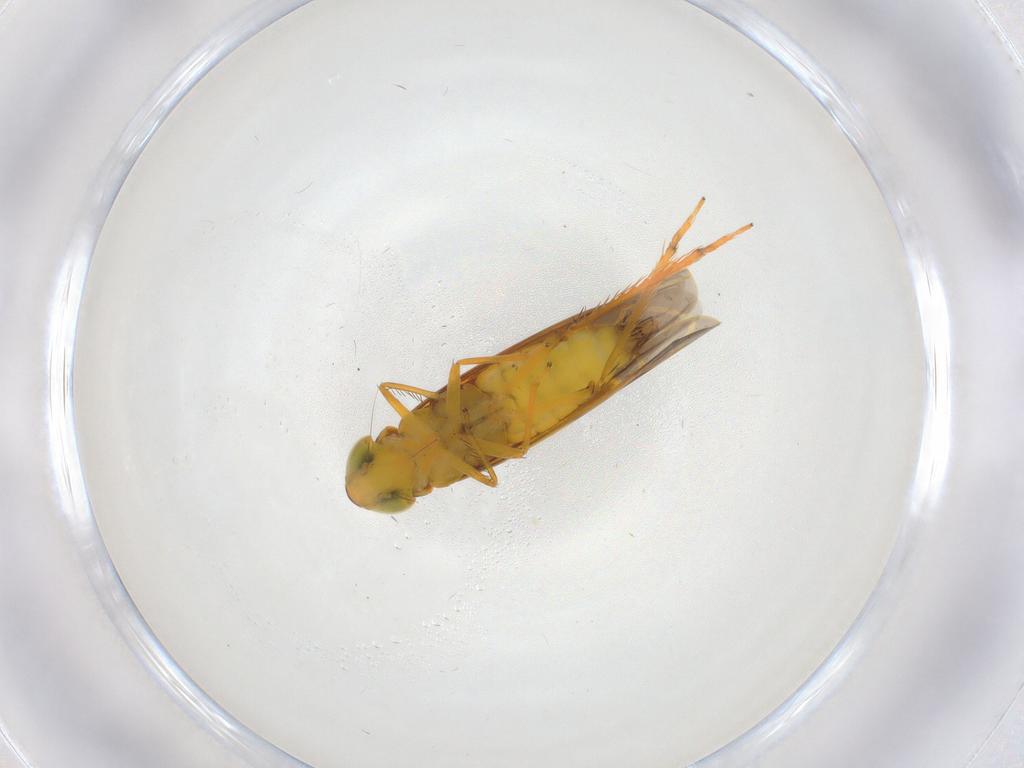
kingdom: Animalia
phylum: Arthropoda
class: Insecta
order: Hemiptera
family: Cicadellidae
